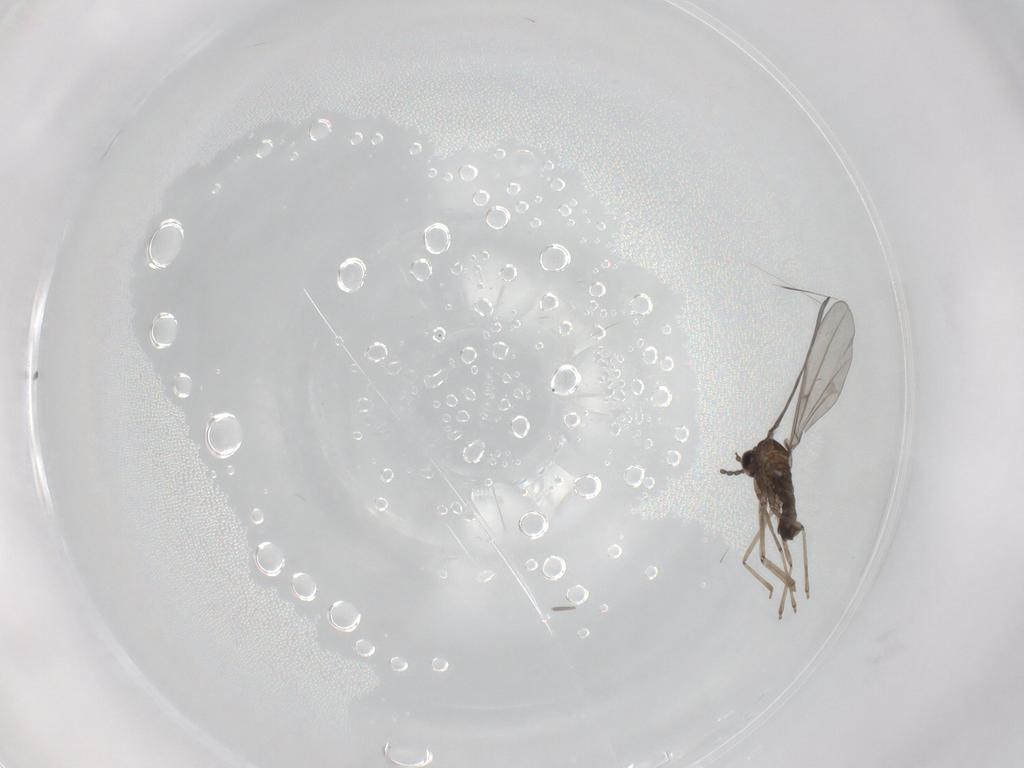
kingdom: Animalia
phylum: Arthropoda
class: Insecta
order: Diptera
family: Cecidomyiidae
